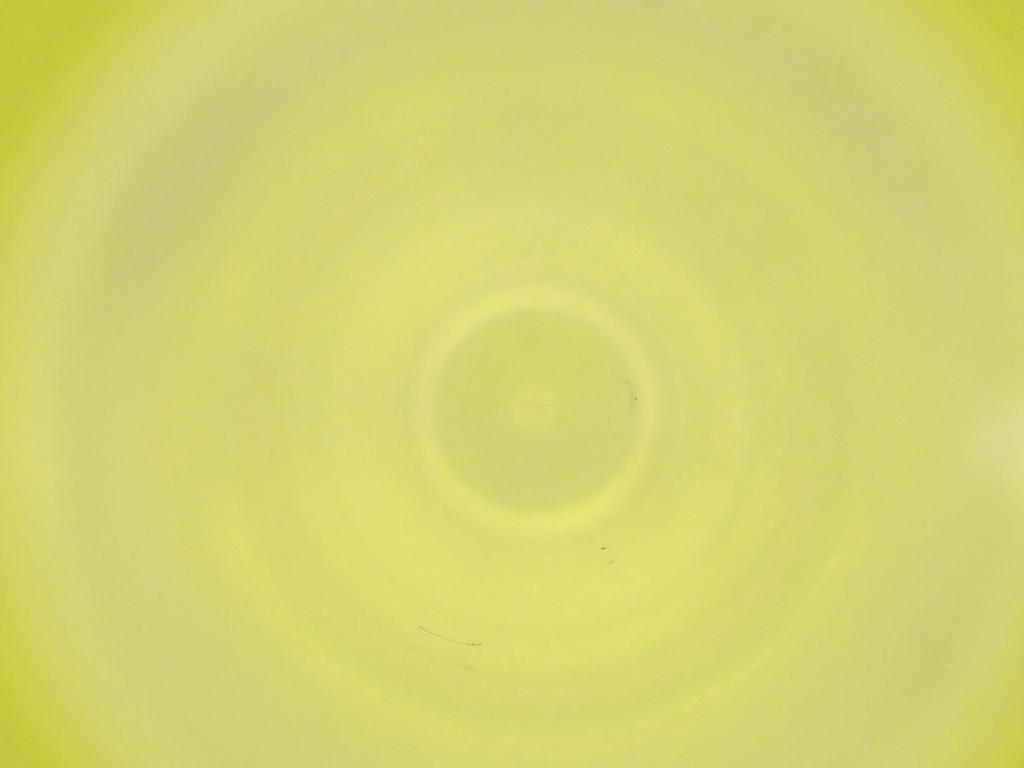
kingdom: Animalia
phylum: Arthropoda
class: Insecta
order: Diptera
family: Cecidomyiidae
